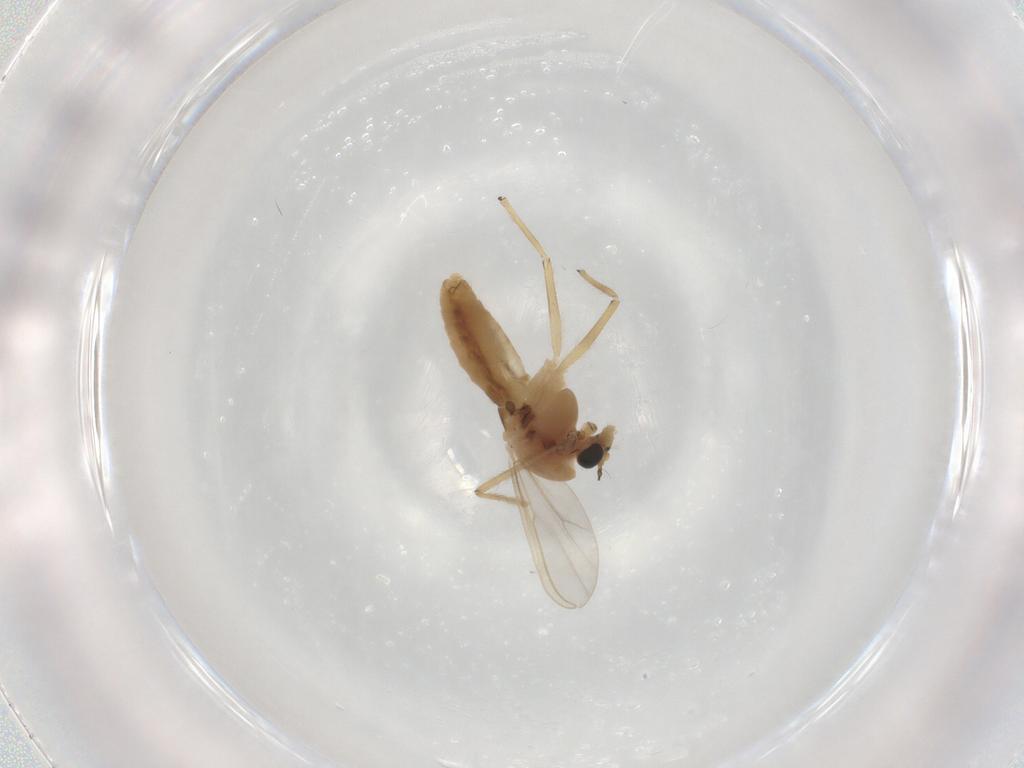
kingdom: Animalia
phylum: Arthropoda
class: Insecta
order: Diptera
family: Chironomidae
